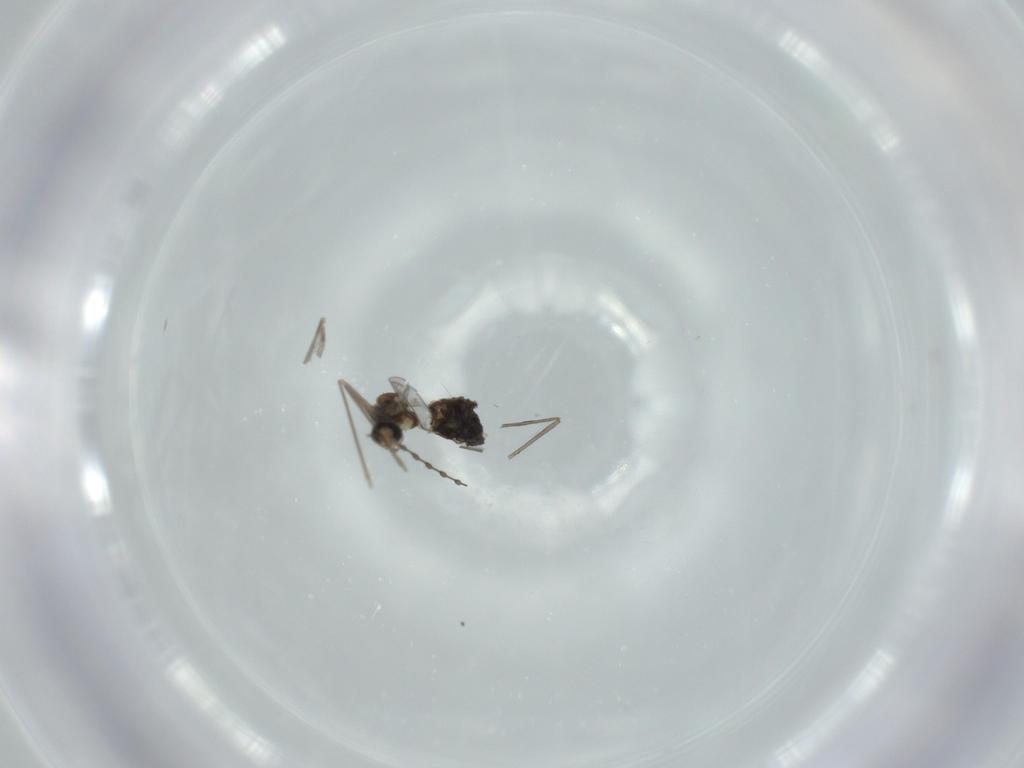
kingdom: Animalia
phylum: Arthropoda
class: Insecta
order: Diptera
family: Cecidomyiidae
